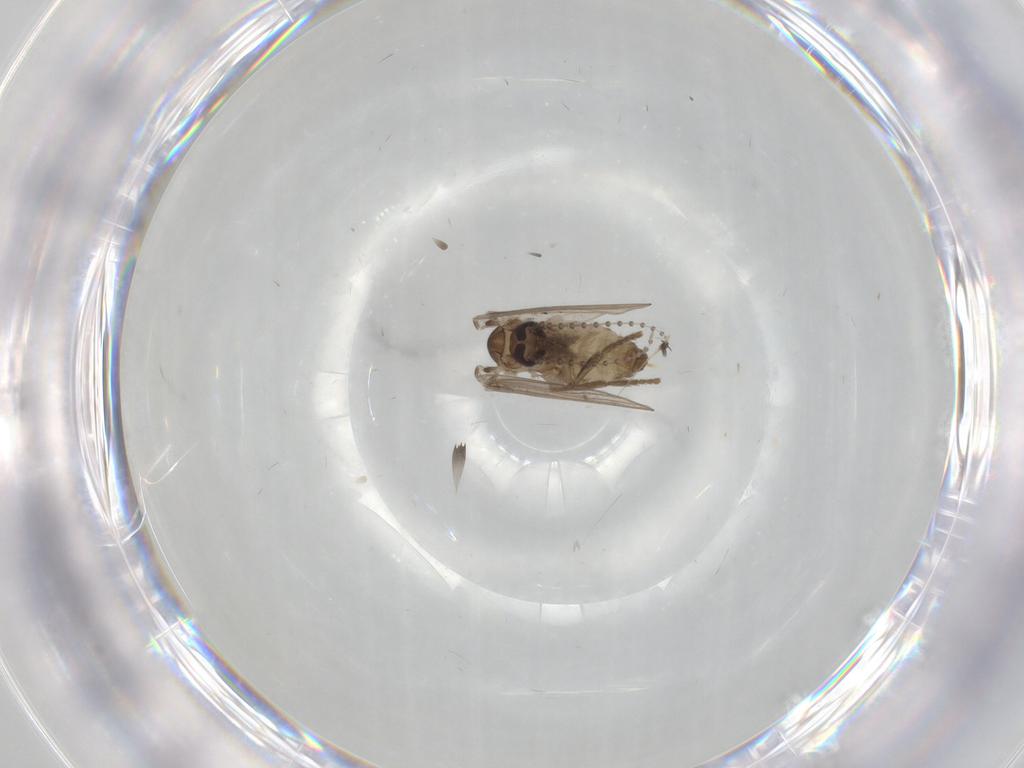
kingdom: Animalia
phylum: Arthropoda
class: Insecta
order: Diptera
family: Psychodidae
